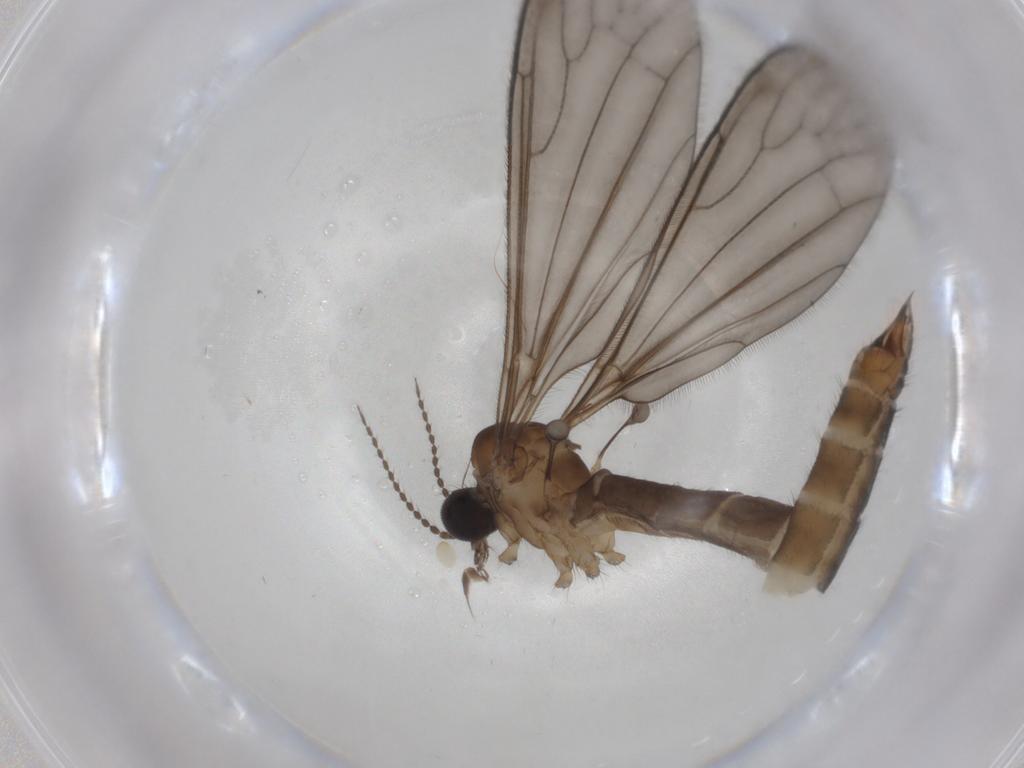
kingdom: Animalia
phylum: Arthropoda
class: Insecta
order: Diptera
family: Limoniidae
